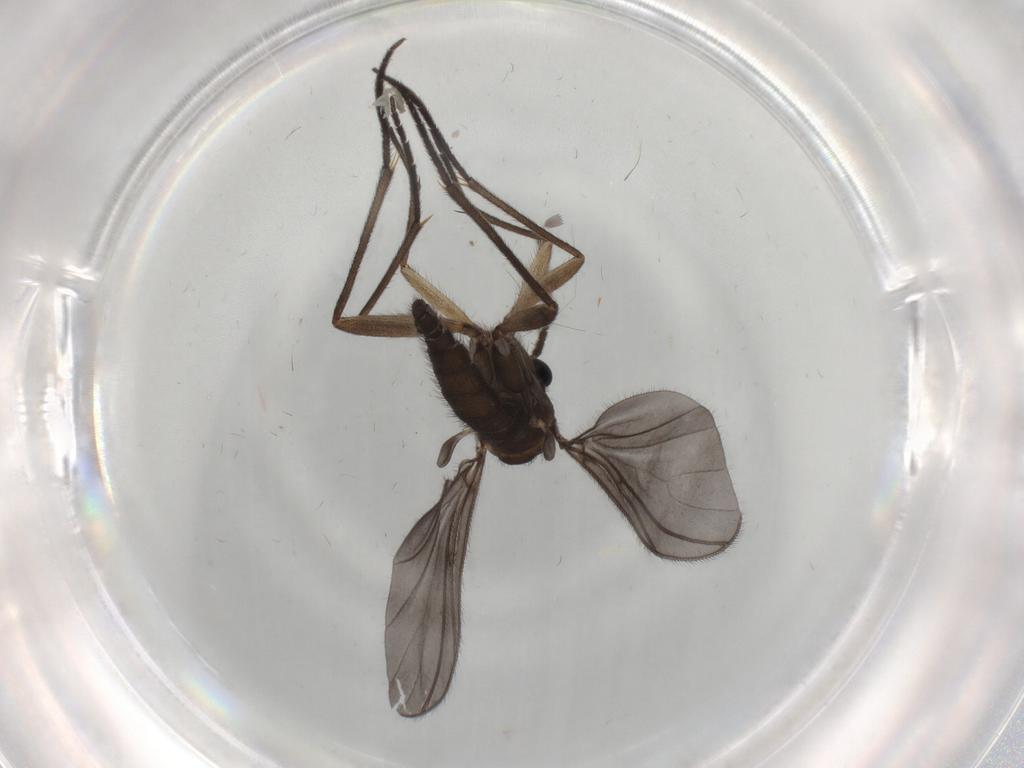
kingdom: Animalia
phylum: Arthropoda
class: Insecta
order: Diptera
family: Sciaridae
